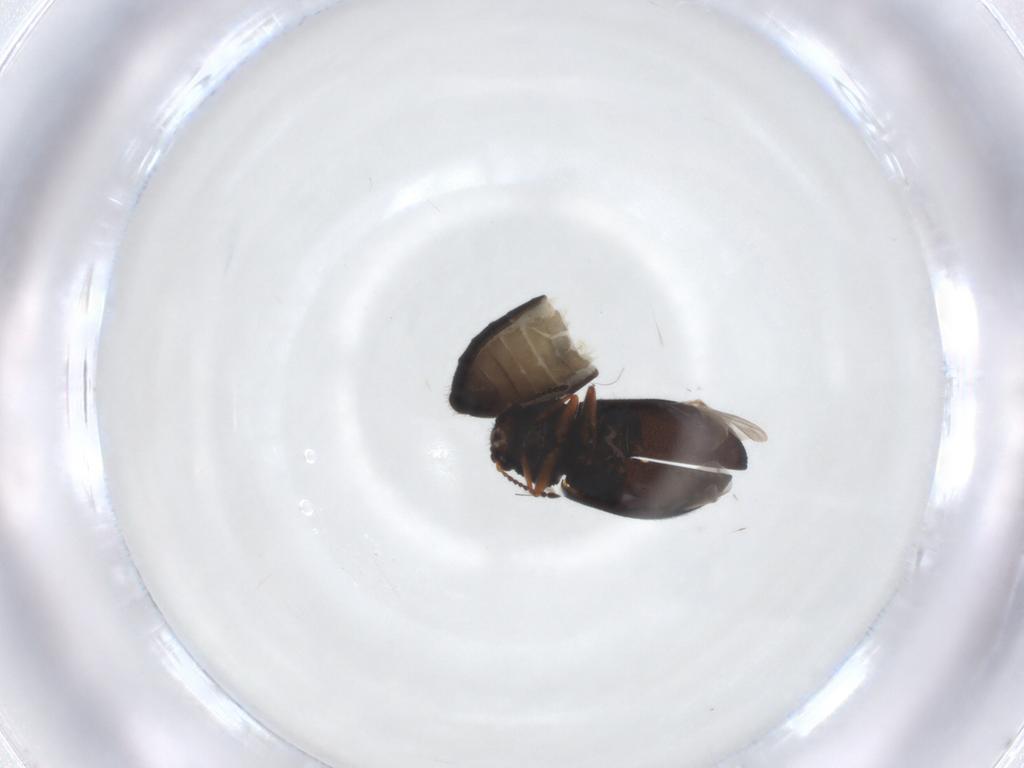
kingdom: Animalia
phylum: Arthropoda
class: Insecta
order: Coleoptera
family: Melyridae
